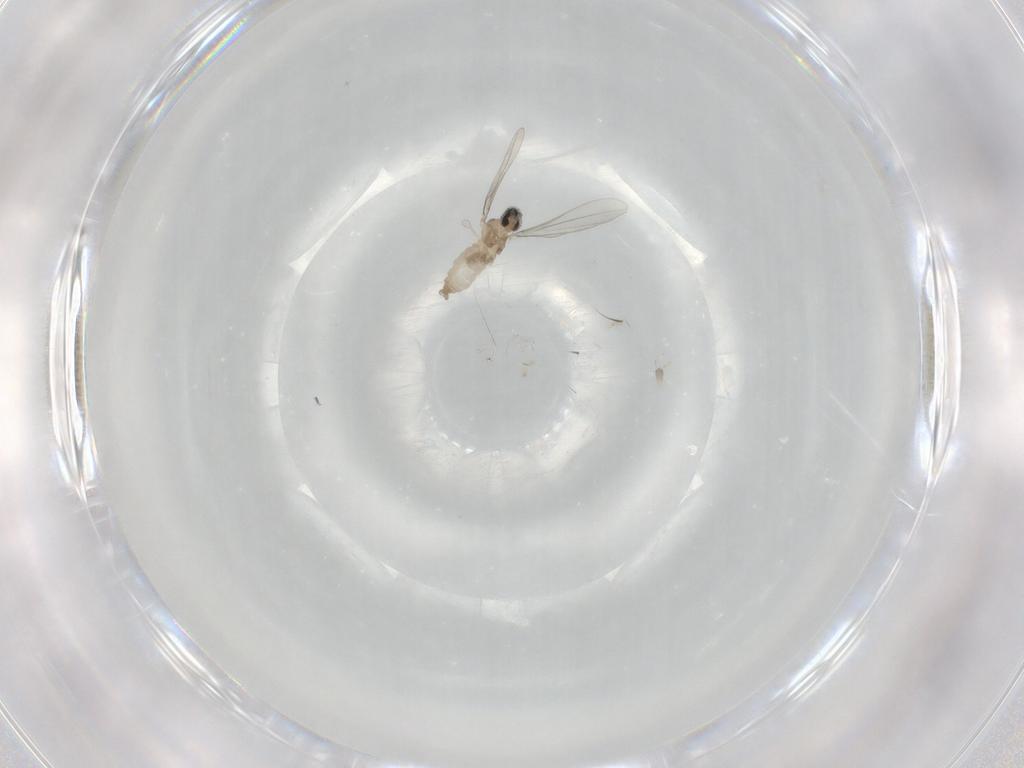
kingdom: Animalia
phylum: Arthropoda
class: Insecta
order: Diptera
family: Cecidomyiidae
